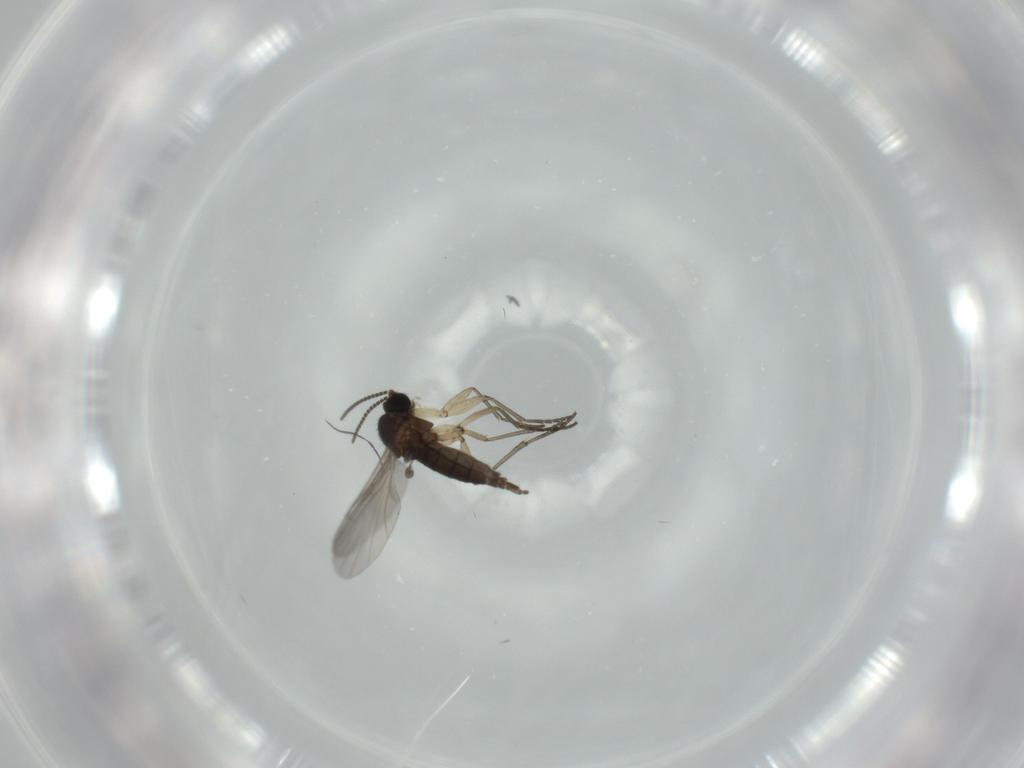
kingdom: Animalia
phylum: Arthropoda
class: Insecta
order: Diptera
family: Sciaridae
